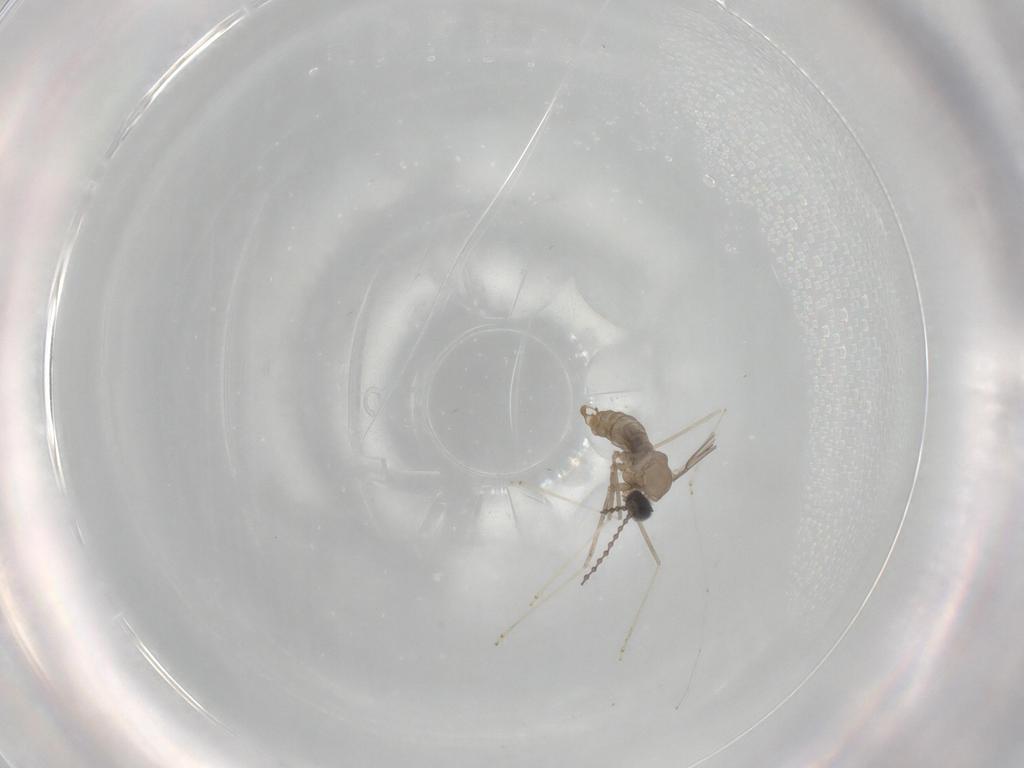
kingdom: Animalia
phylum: Arthropoda
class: Insecta
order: Diptera
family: Cecidomyiidae
